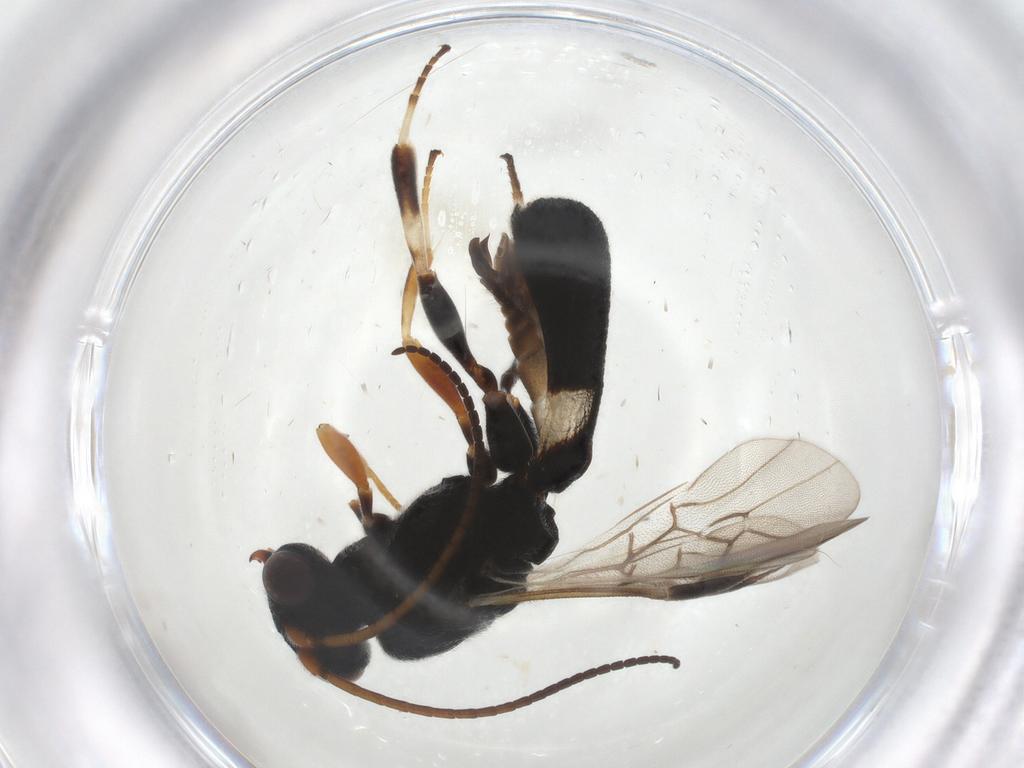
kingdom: Animalia
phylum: Arthropoda
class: Insecta
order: Hymenoptera
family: Braconidae
